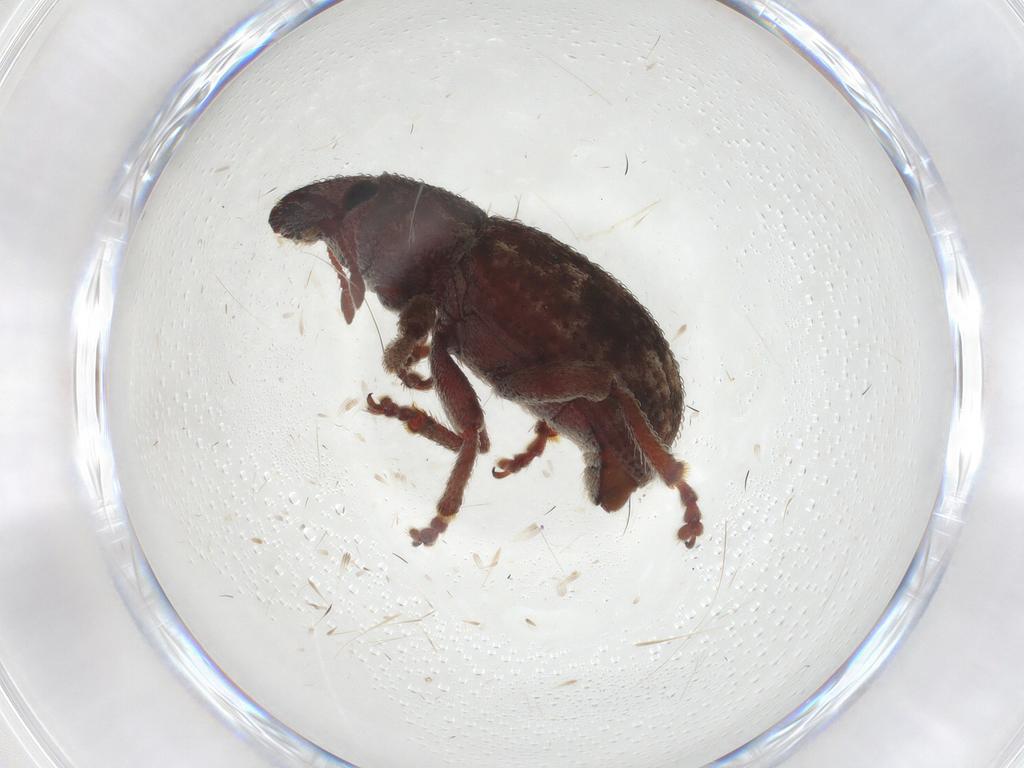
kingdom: Animalia
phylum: Arthropoda
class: Insecta
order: Coleoptera
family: Curculionidae
